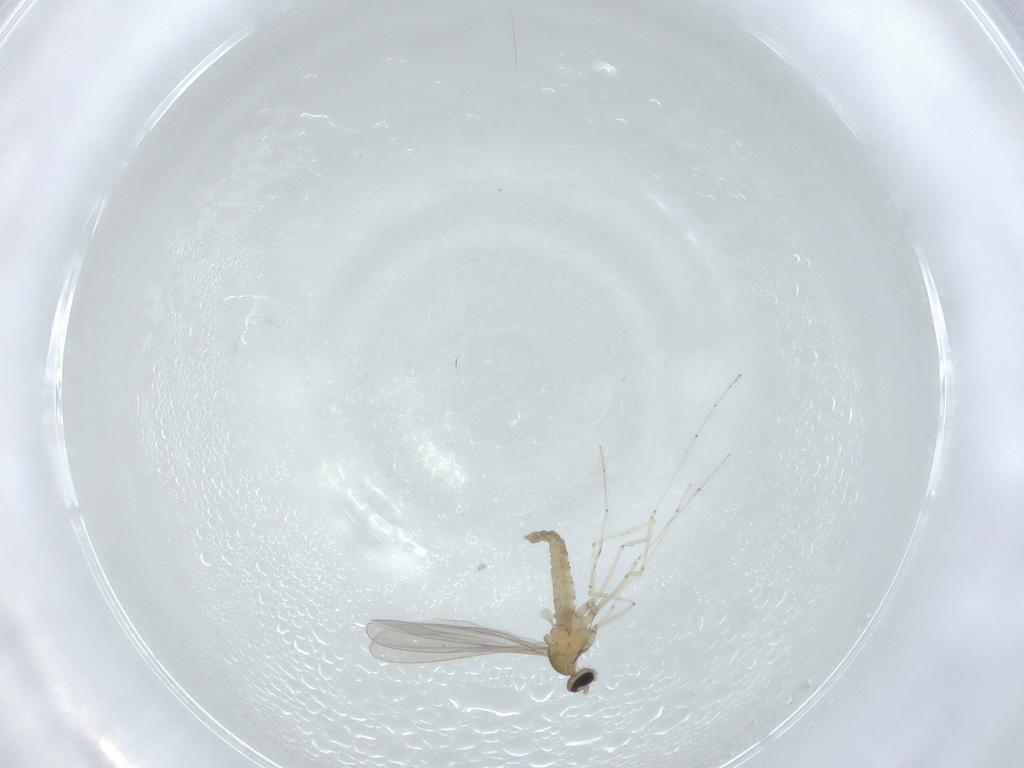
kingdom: Animalia
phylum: Arthropoda
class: Insecta
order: Diptera
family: Cecidomyiidae
